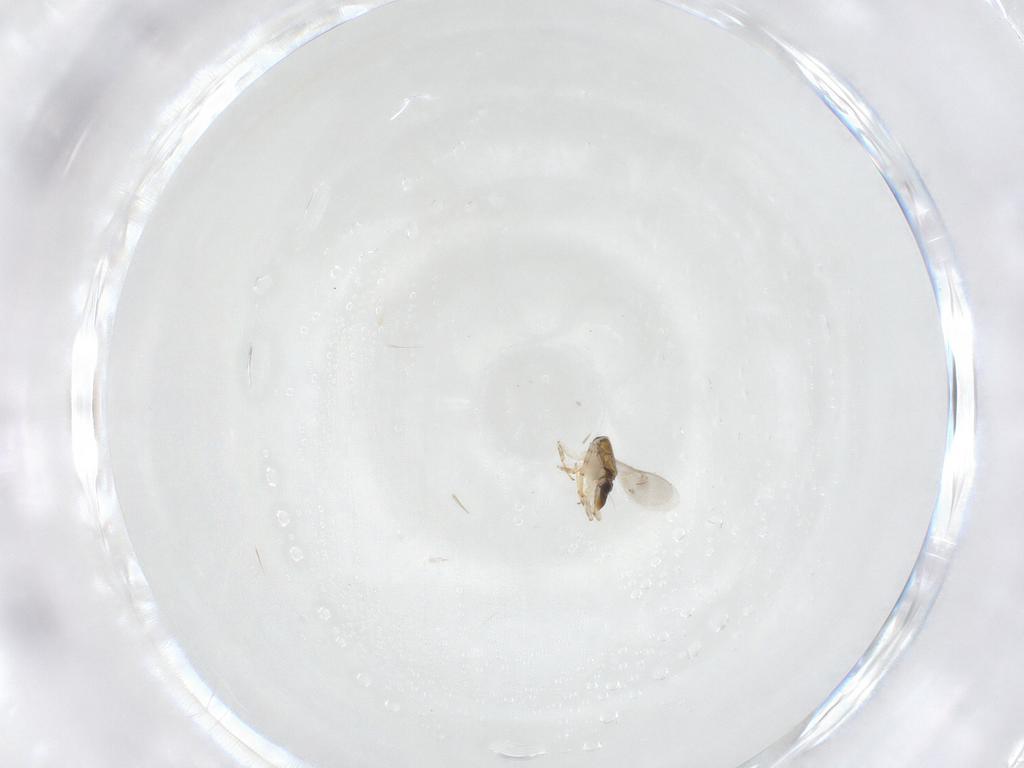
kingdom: Animalia
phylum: Arthropoda
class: Insecta
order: Hymenoptera
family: Encyrtidae
